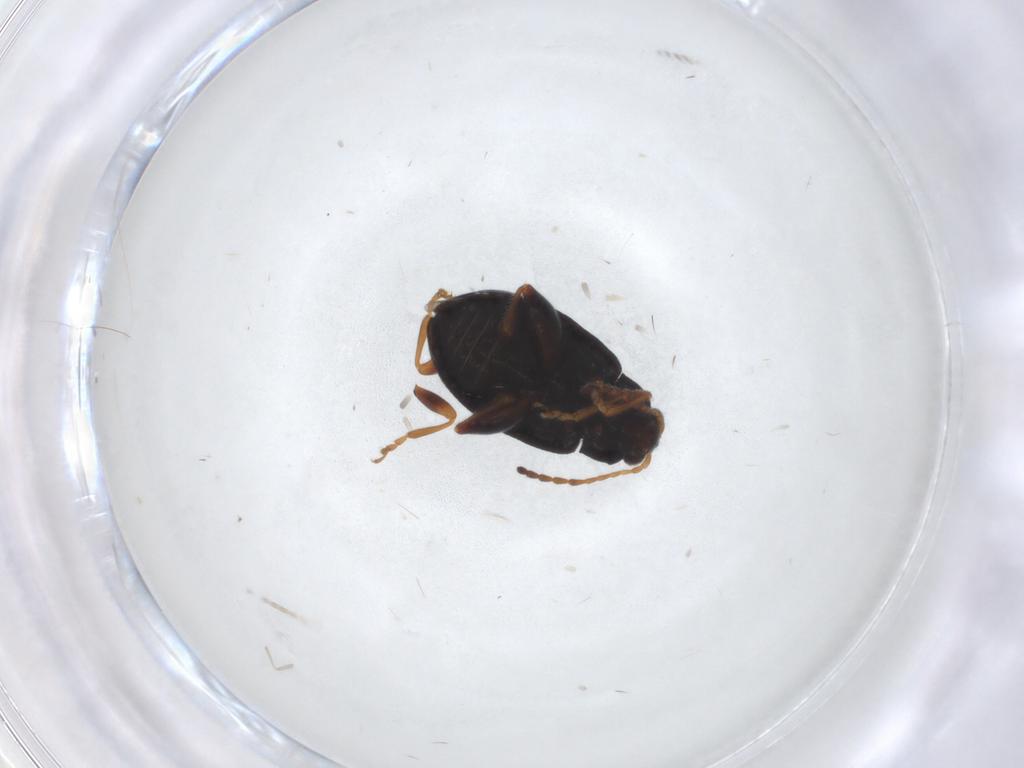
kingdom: Animalia
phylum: Arthropoda
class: Insecta
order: Coleoptera
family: Chrysomelidae
